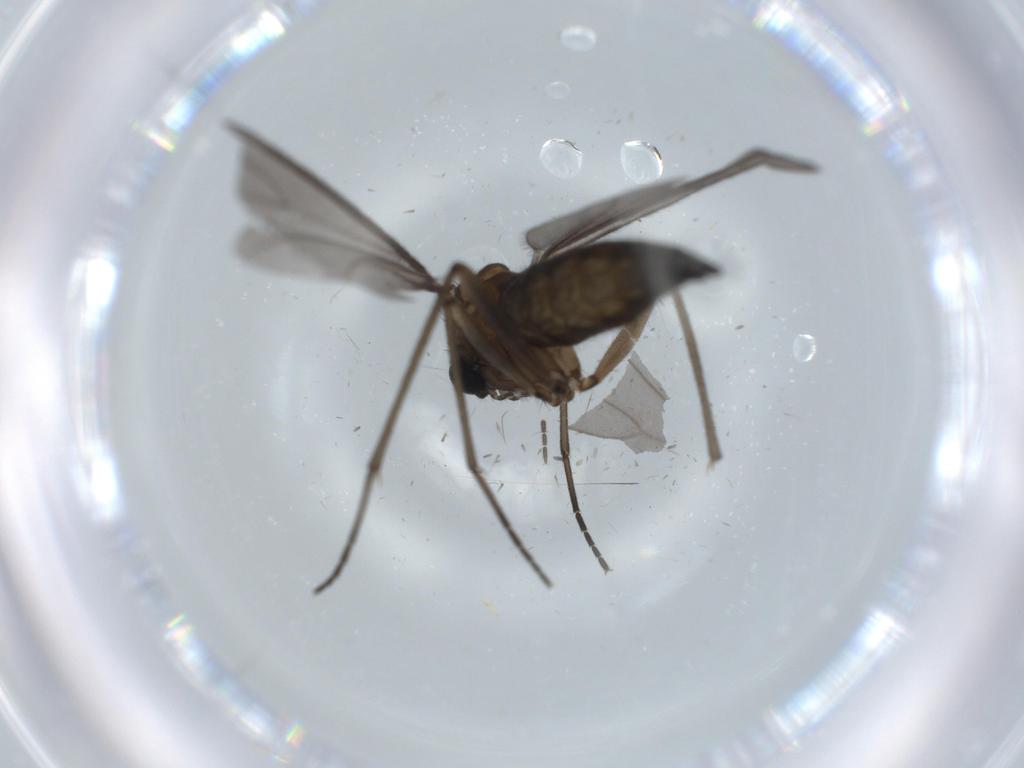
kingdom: Animalia
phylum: Arthropoda
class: Insecta
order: Diptera
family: Sciaridae
